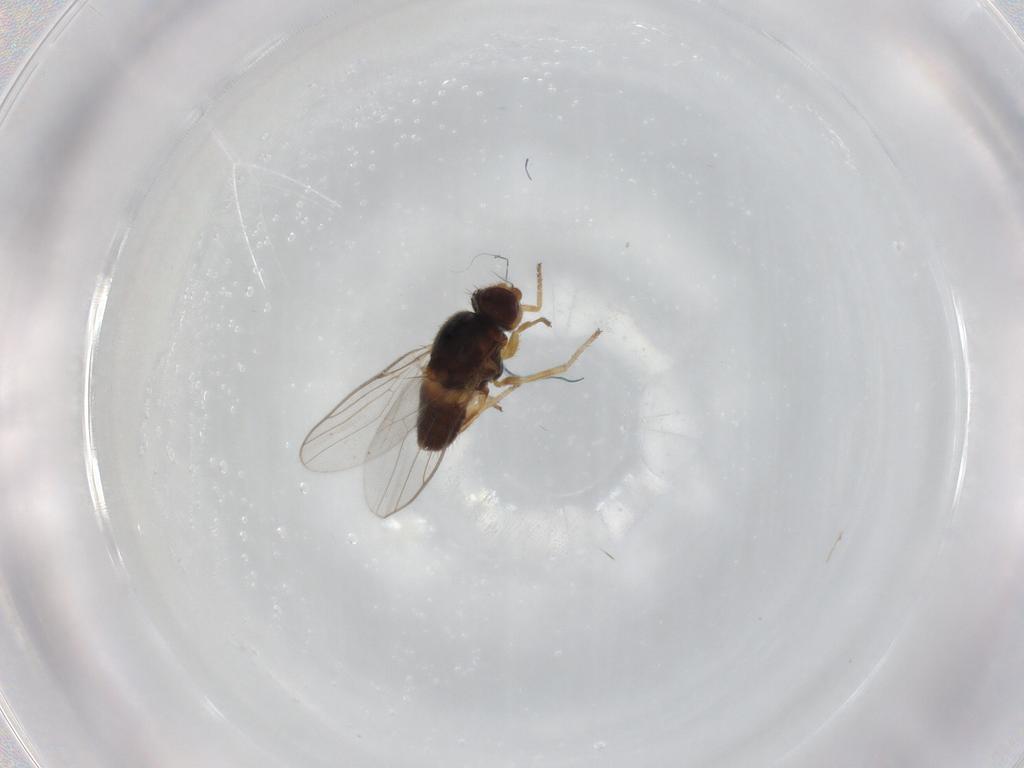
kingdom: Animalia
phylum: Arthropoda
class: Insecta
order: Diptera
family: Chloropidae
